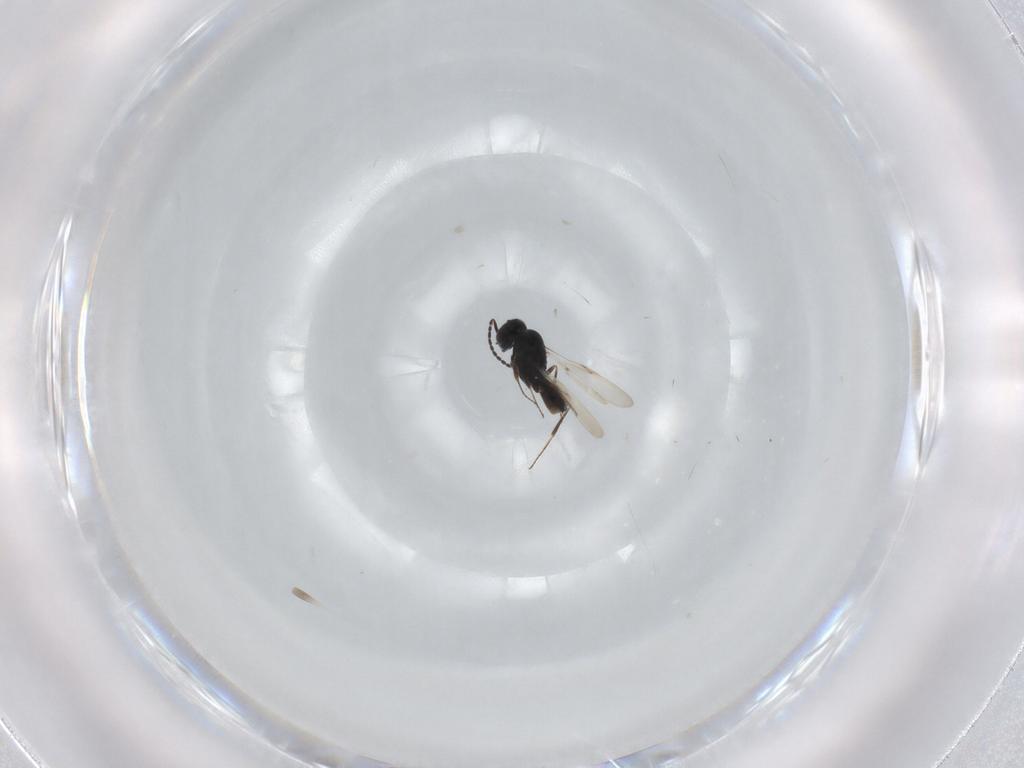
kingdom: Animalia
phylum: Arthropoda
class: Insecta
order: Hymenoptera
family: Scelionidae
